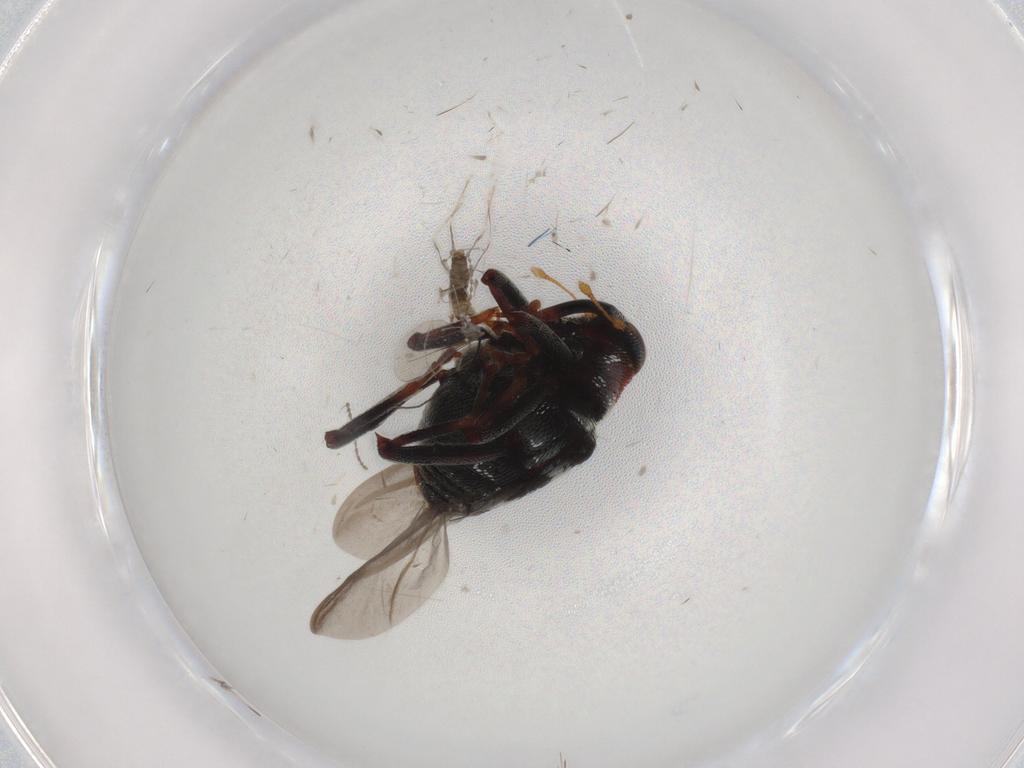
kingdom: Animalia
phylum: Arthropoda
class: Insecta
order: Coleoptera
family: Curculionidae
